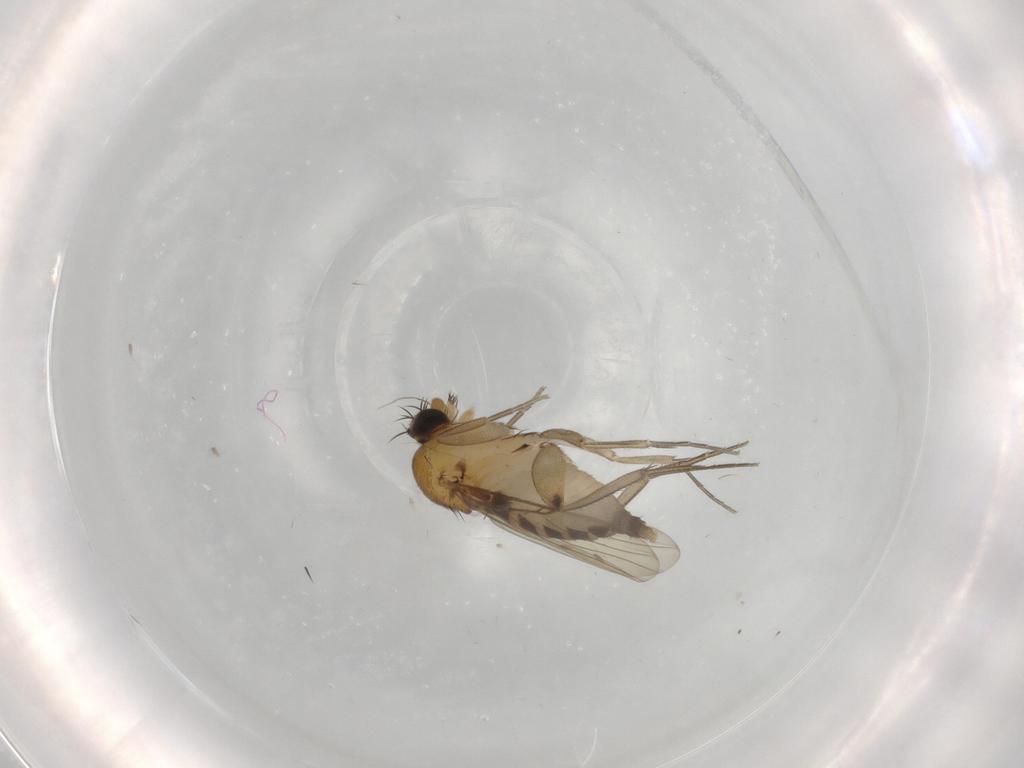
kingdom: Animalia
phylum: Arthropoda
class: Insecta
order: Diptera
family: Phoridae
